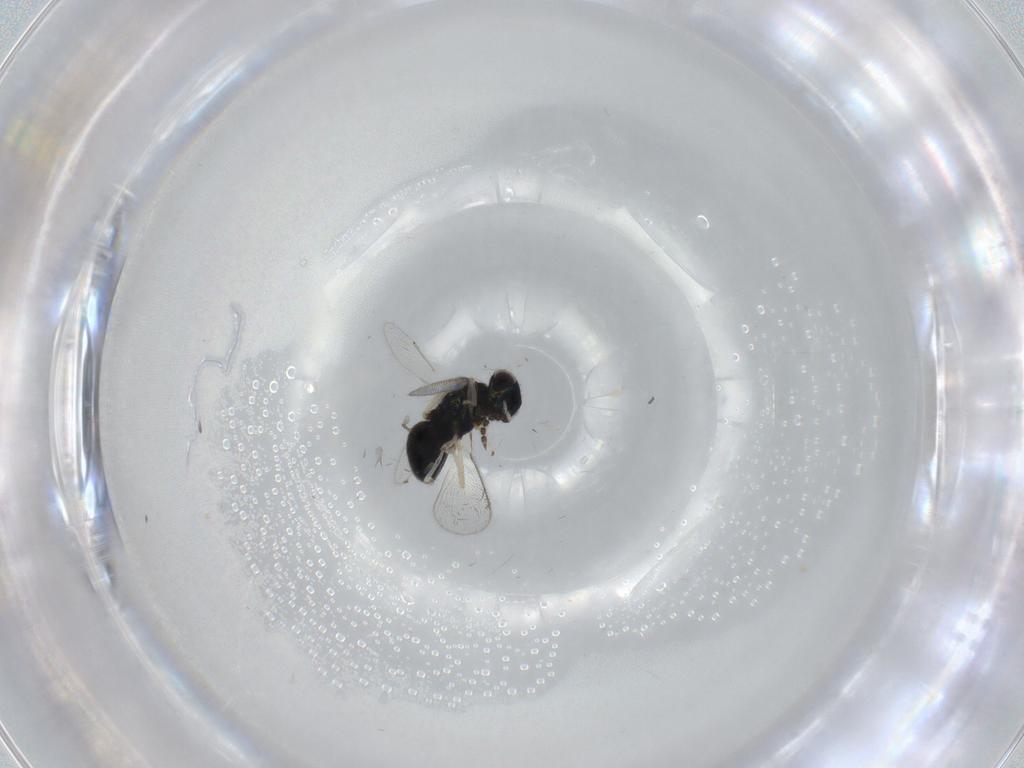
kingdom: Animalia
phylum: Arthropoda
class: Insecta
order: Hymenoptera
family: Eulophidae
